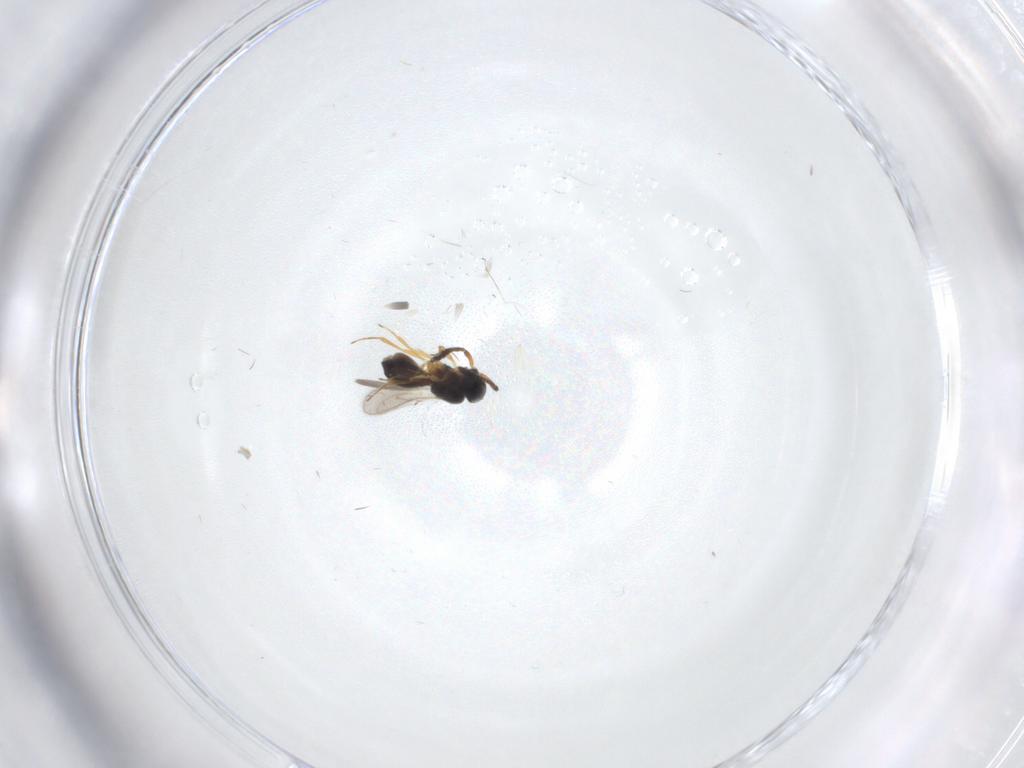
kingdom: Animalia
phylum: Arthropoda
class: Insecta
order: Hymenoptera
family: Scelionidae
